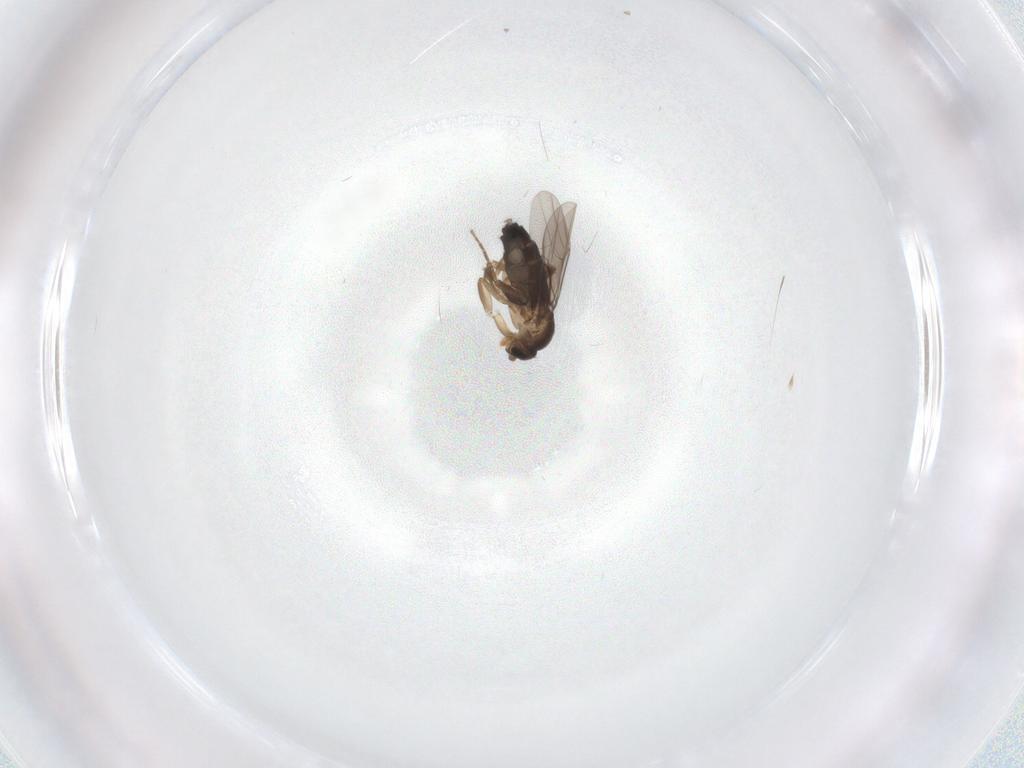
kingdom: Animalia
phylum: Arthropoda
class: Insecta
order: Diptera
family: Phoridae
